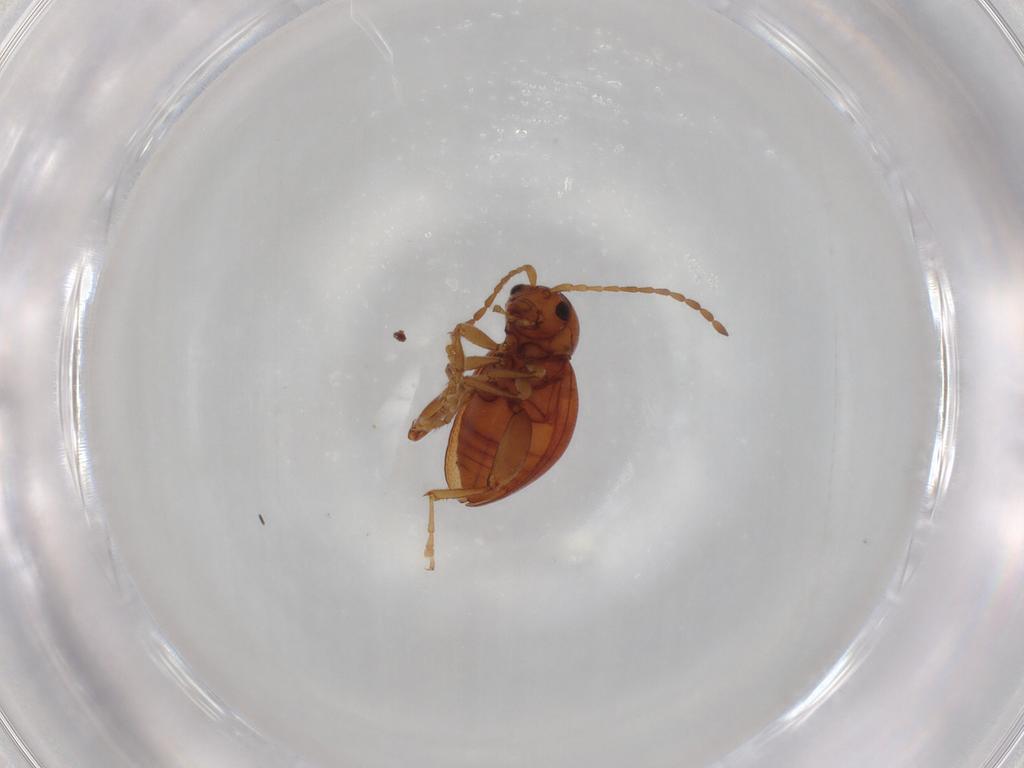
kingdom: Animalia
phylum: Arthropoda
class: Insecta
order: Coleoptera
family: Chrysomelidae
